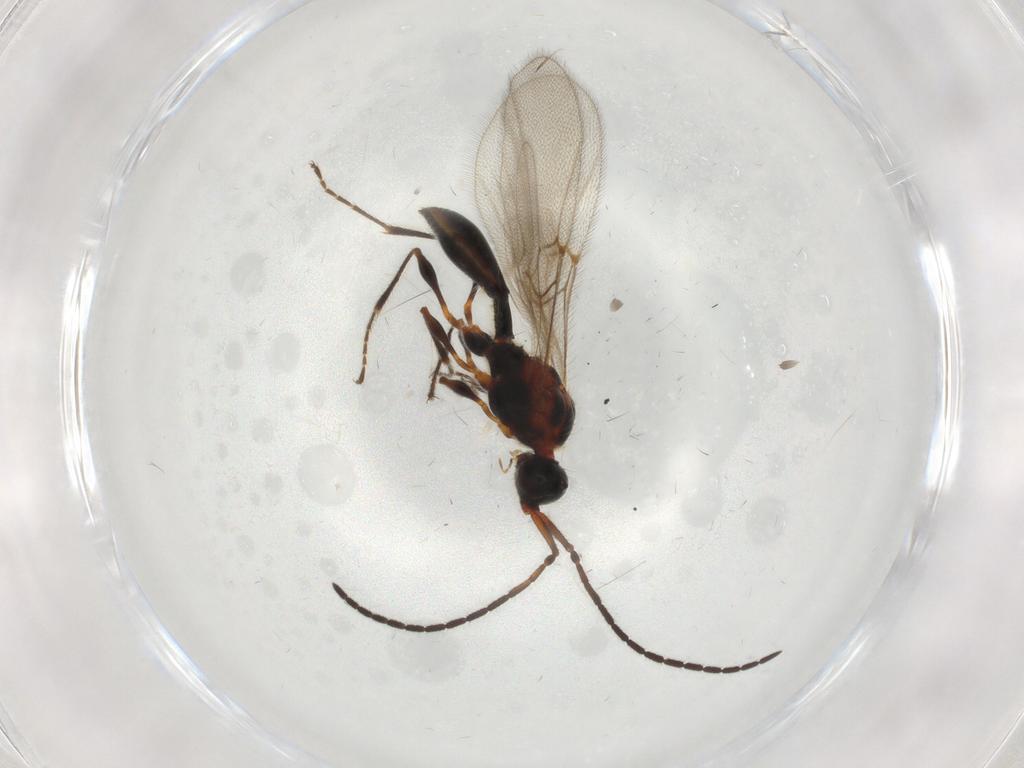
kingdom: Animalia
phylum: Arthropoda
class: Insecta
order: Hymenoptera
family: Diapriidae
